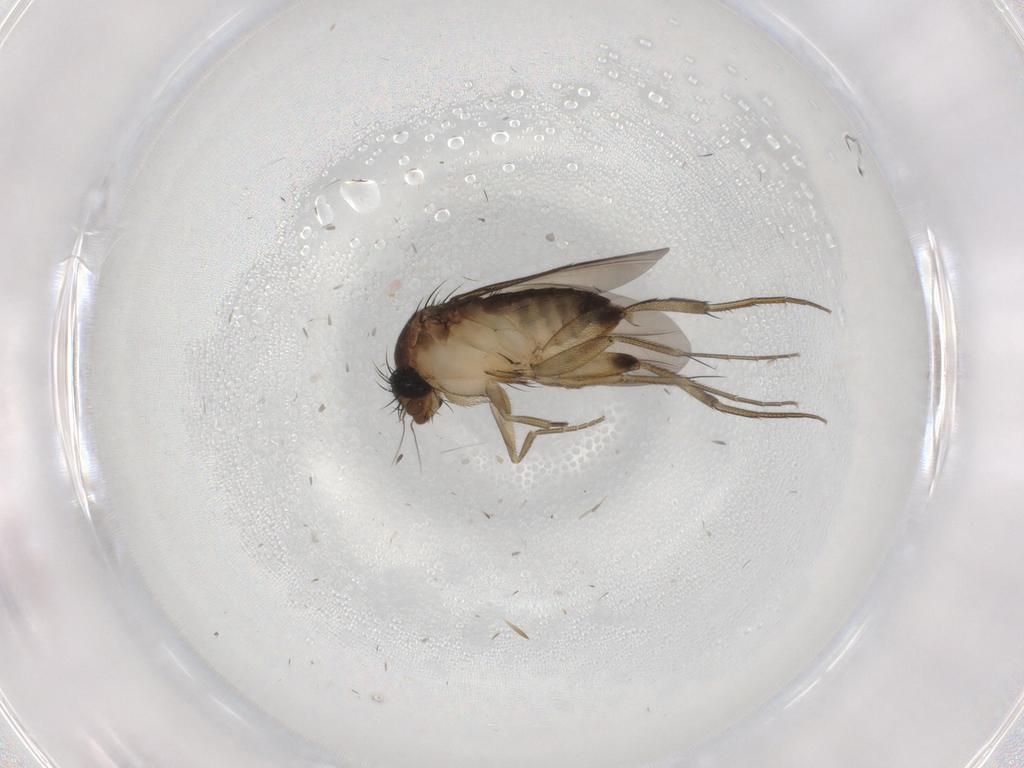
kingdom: Animalia
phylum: Arthropoda
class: Insecta
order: Diptera
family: Phoridae
